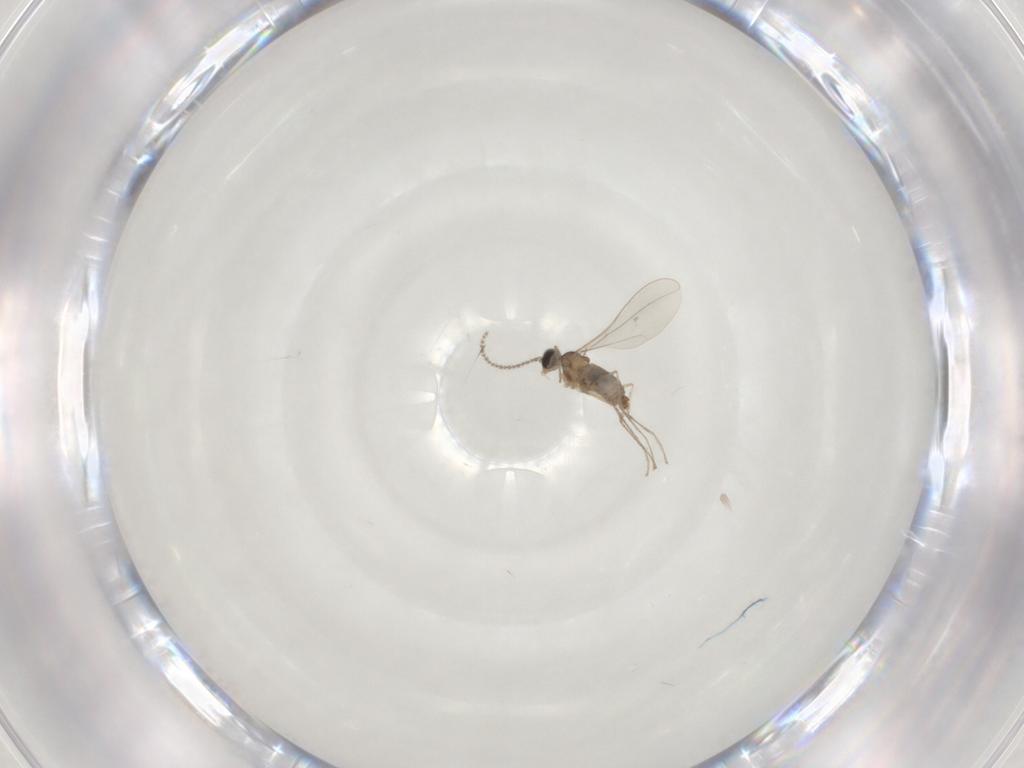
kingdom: Animalia
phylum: Arthropoda
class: Insecta
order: Diptera
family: Cecidomyiidae
